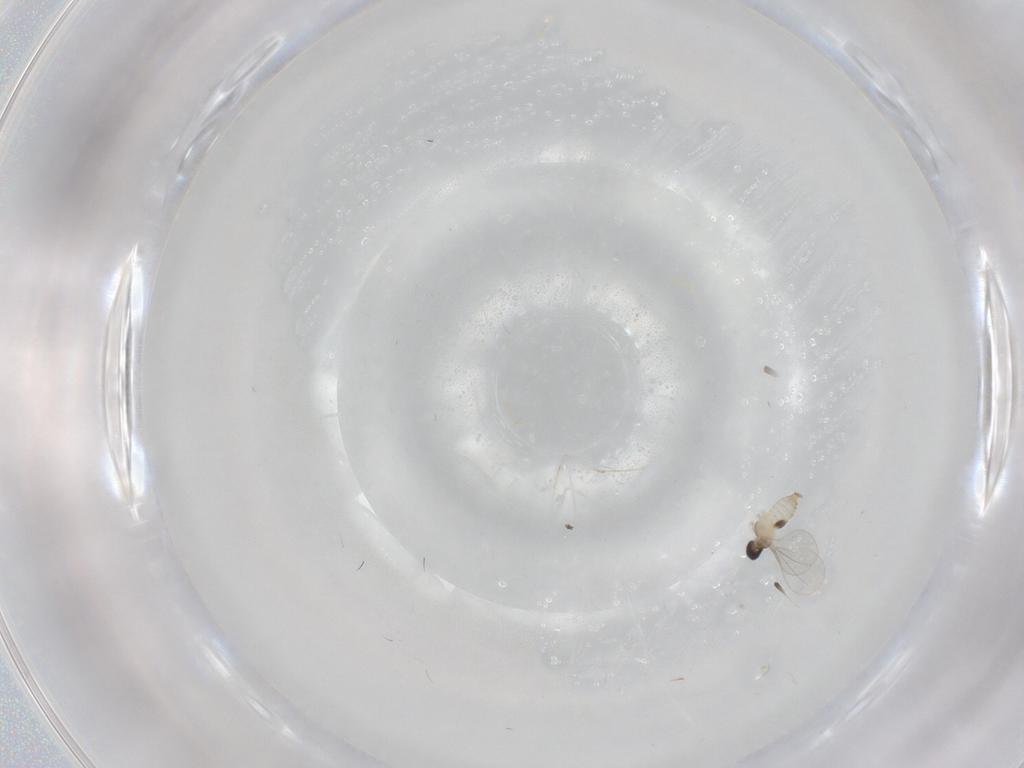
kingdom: Animalia
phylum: Arthropoda
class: Insecta
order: Diptera
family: Cecidomyiidae
